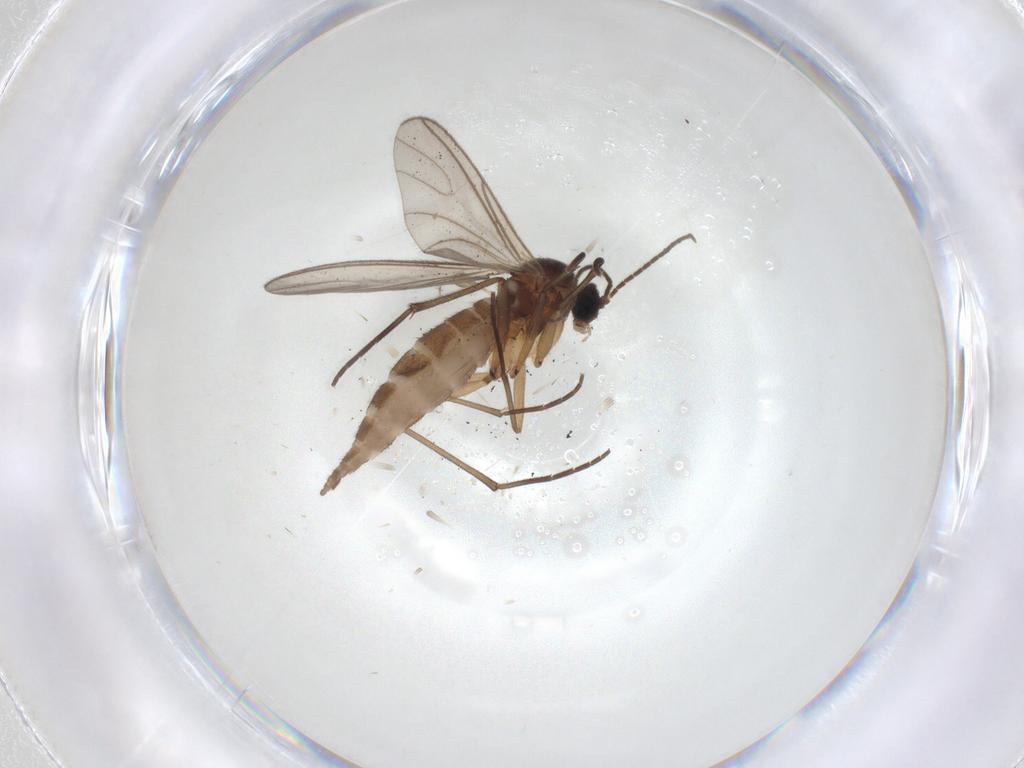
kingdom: Animalia
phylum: Arthropoda
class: Insecta
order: Diptera
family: Sciaridae
